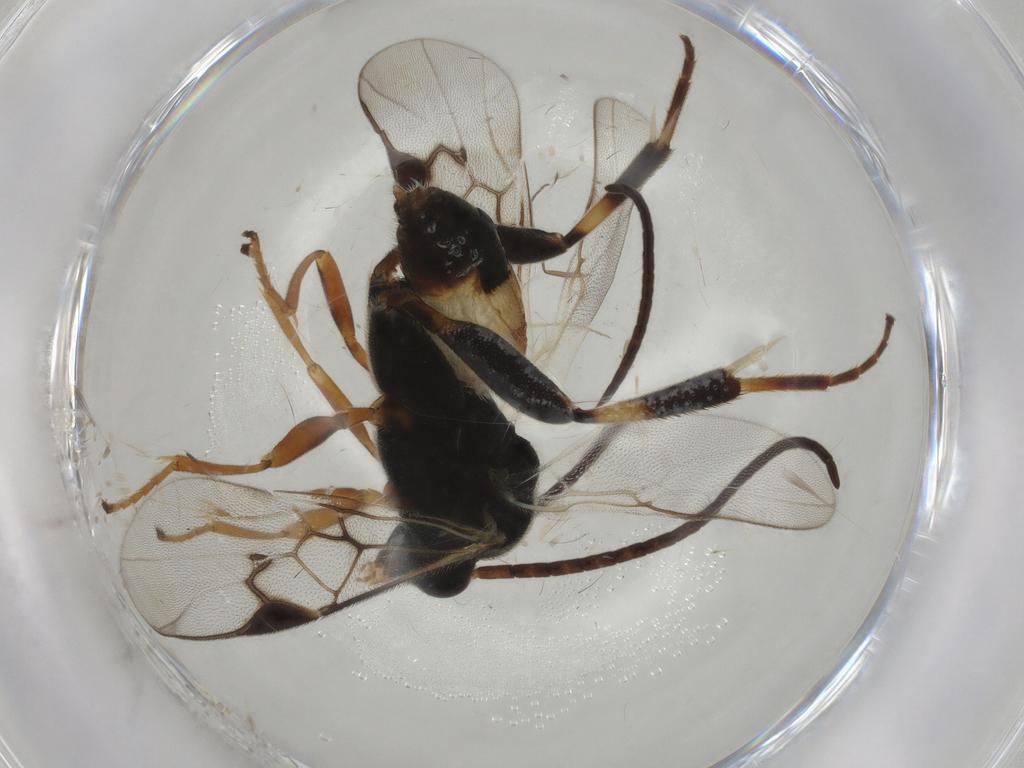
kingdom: Animalia
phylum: Arthropoda
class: Insecta
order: Hymenoptera
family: Braconidae
